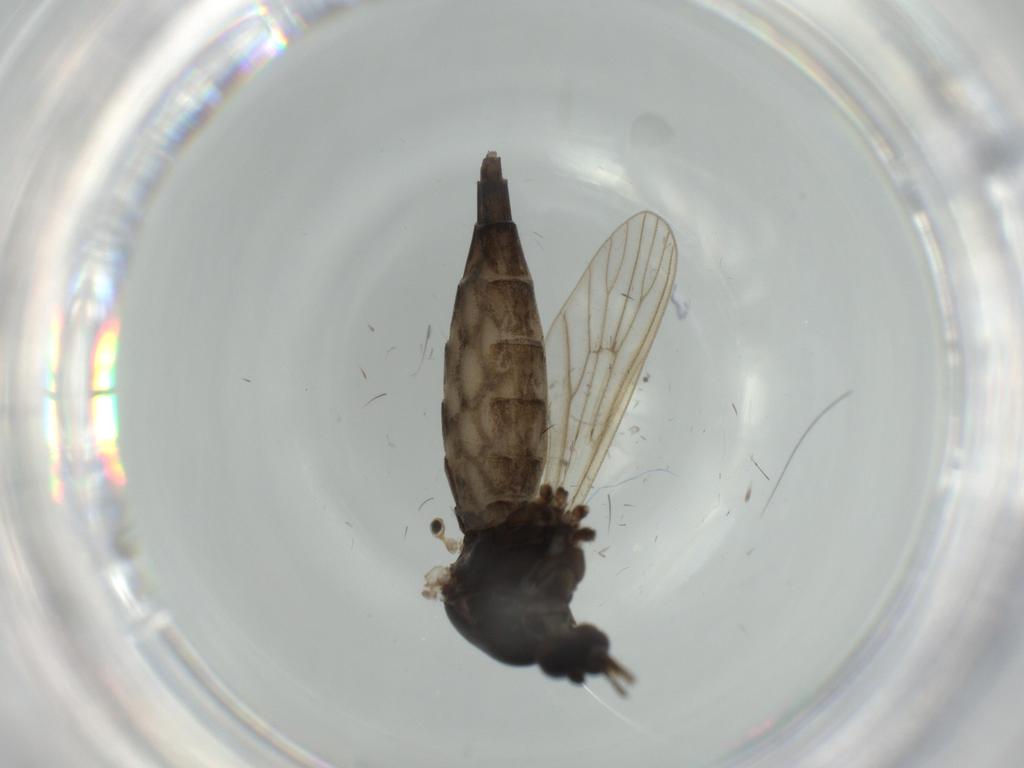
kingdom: Animalia
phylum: Arthropoda
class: Insecta
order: Diptera
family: Cecidomyiidae
